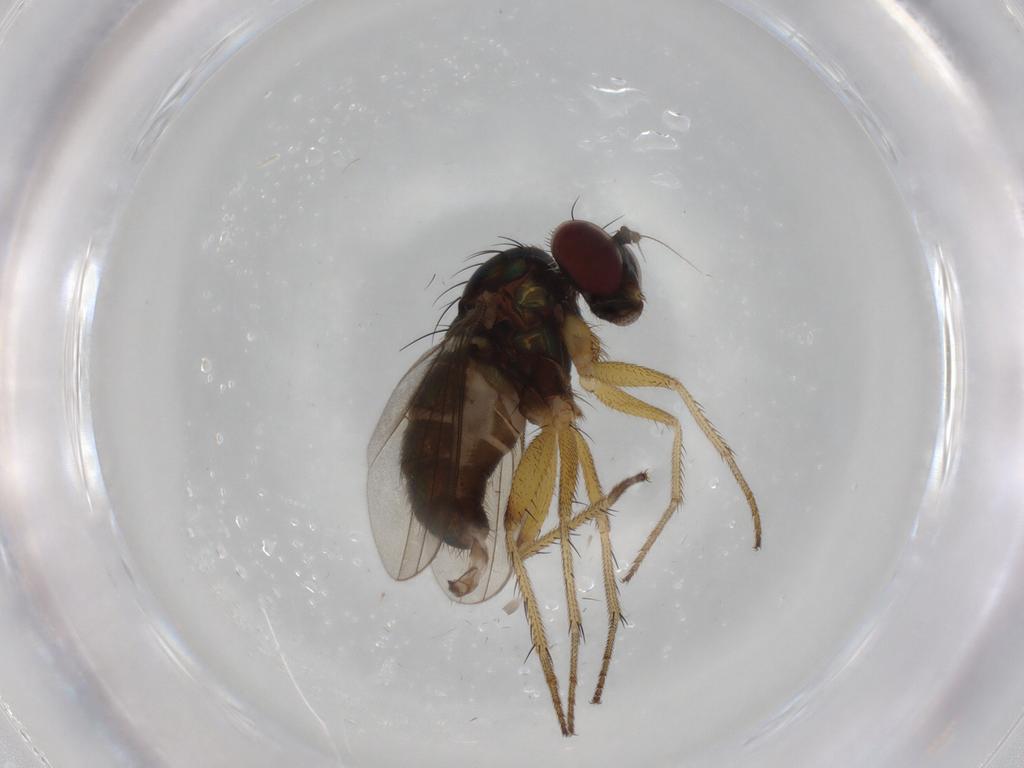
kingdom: Animalia
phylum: Arthropoda
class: Insecta
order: Diptera
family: Dolichopodidae
